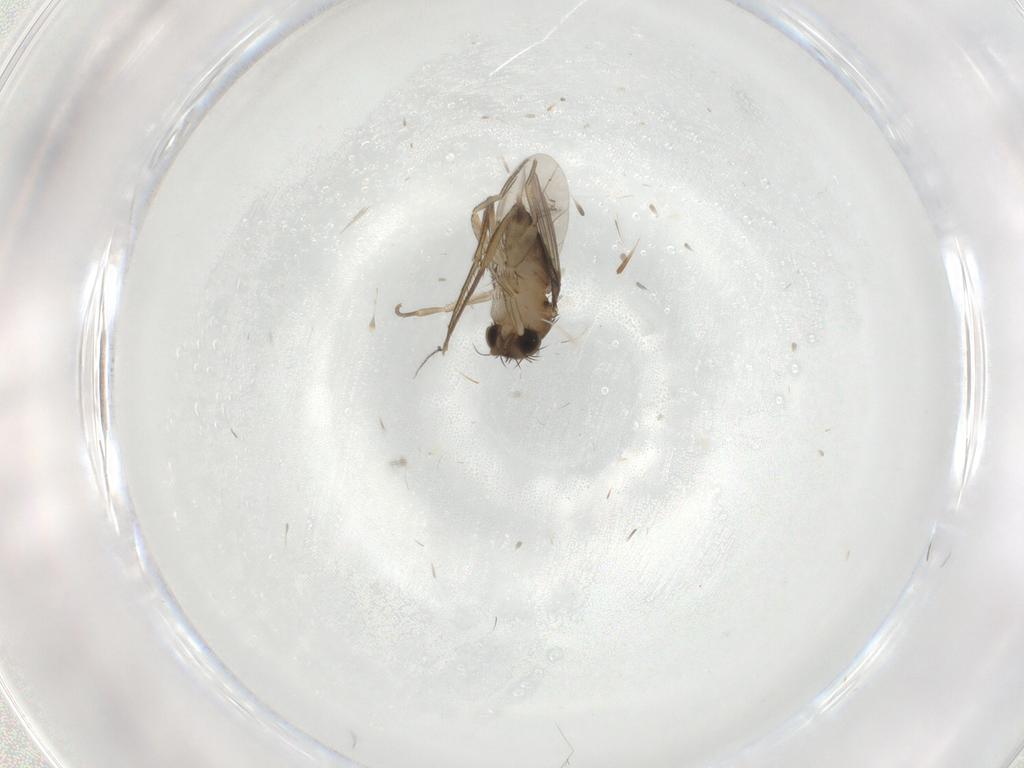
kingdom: Animalia
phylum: Arthropoda
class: Insecta
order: Diptera
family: Phoridae
